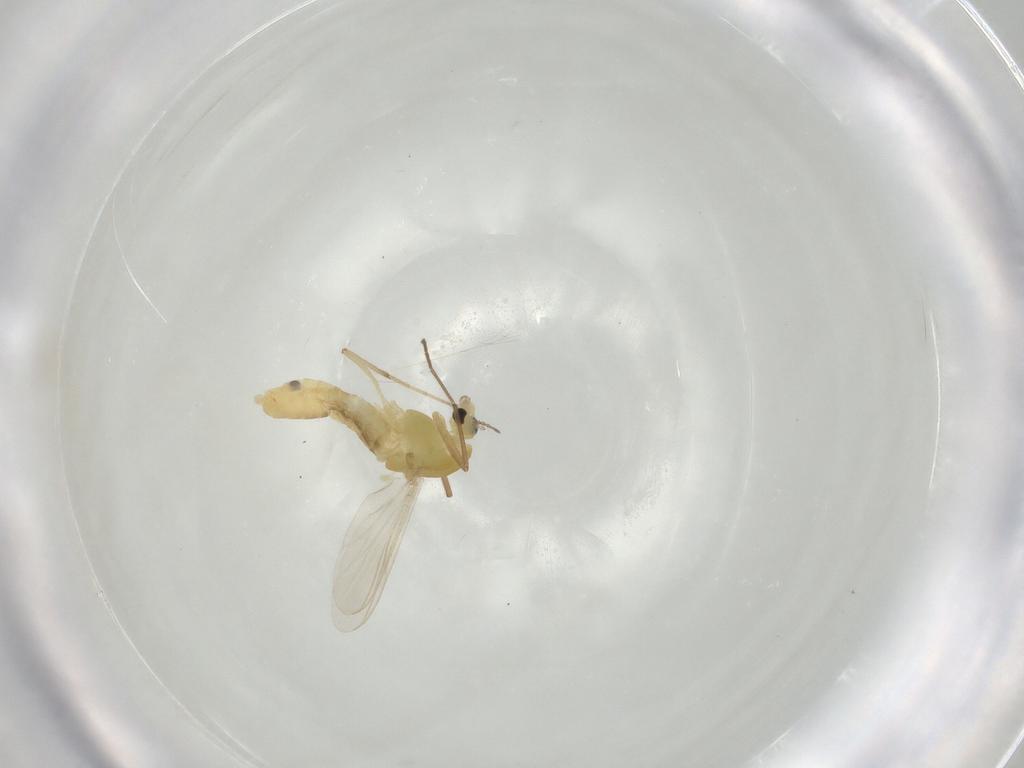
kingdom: Animalia
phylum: Arthropoda
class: Insecta
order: Diptera
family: Chironomidae
